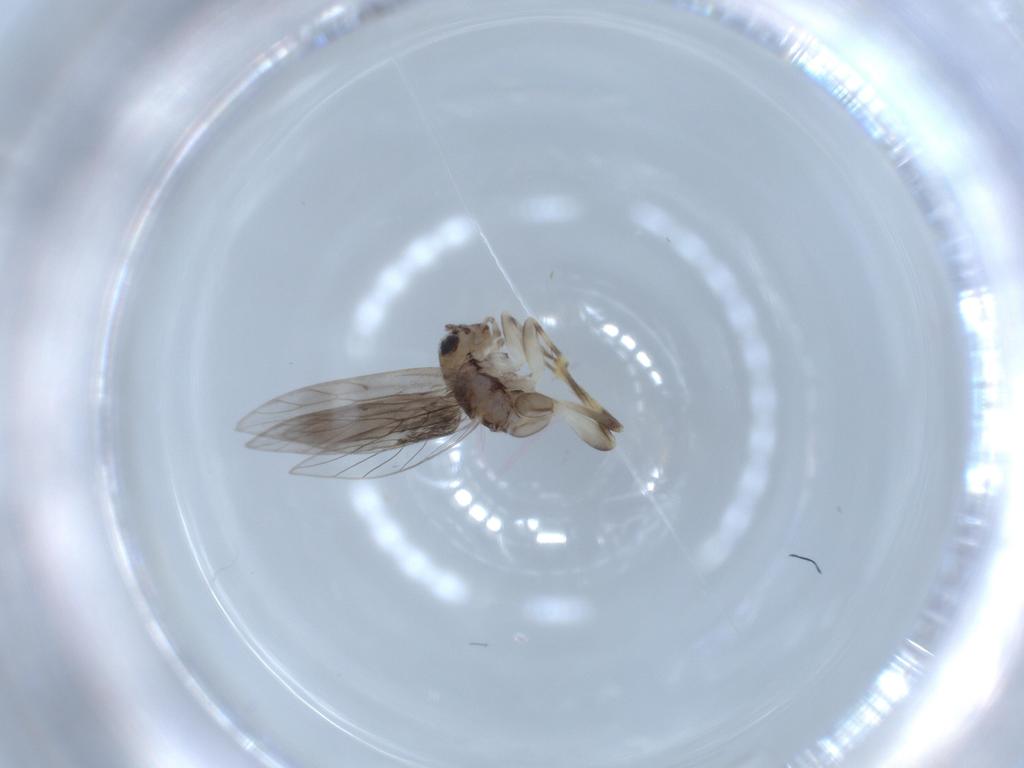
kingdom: Animalia
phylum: Arthropoda
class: Insecta
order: Psocodea
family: Lepidopsocidae
